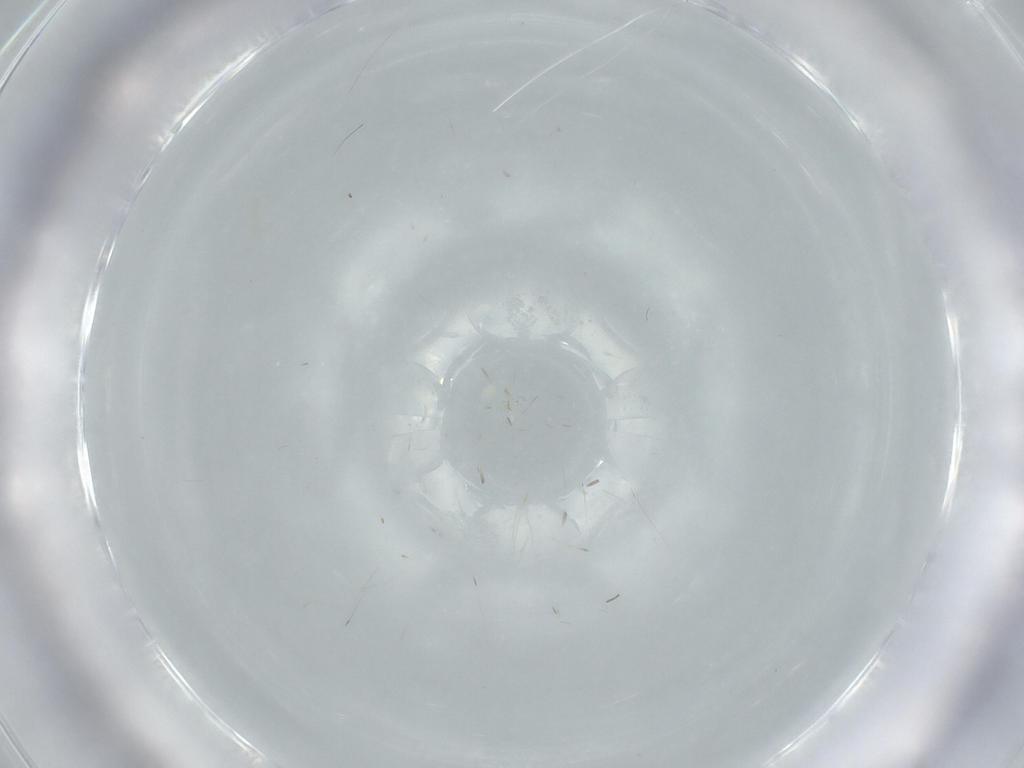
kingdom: Animalia
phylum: Arthropoda
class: Insecta
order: Diptera
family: Phoridae
